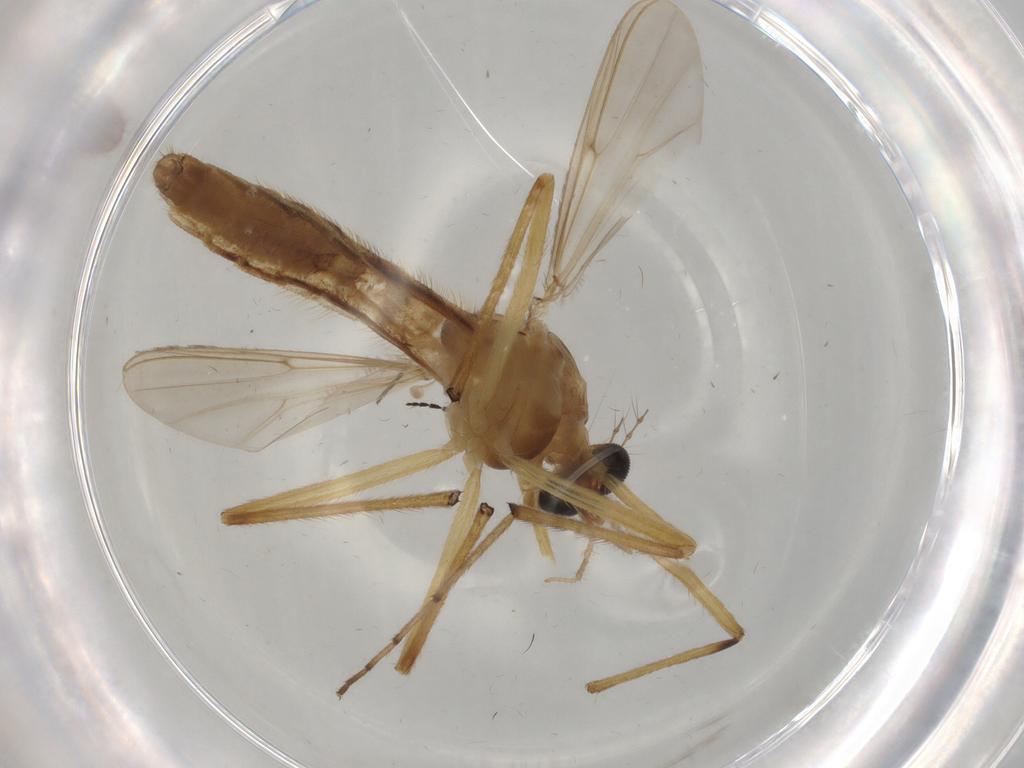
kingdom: Animalia
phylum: Arthropoda
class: Insecta
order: Diptera
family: Sciaridae
